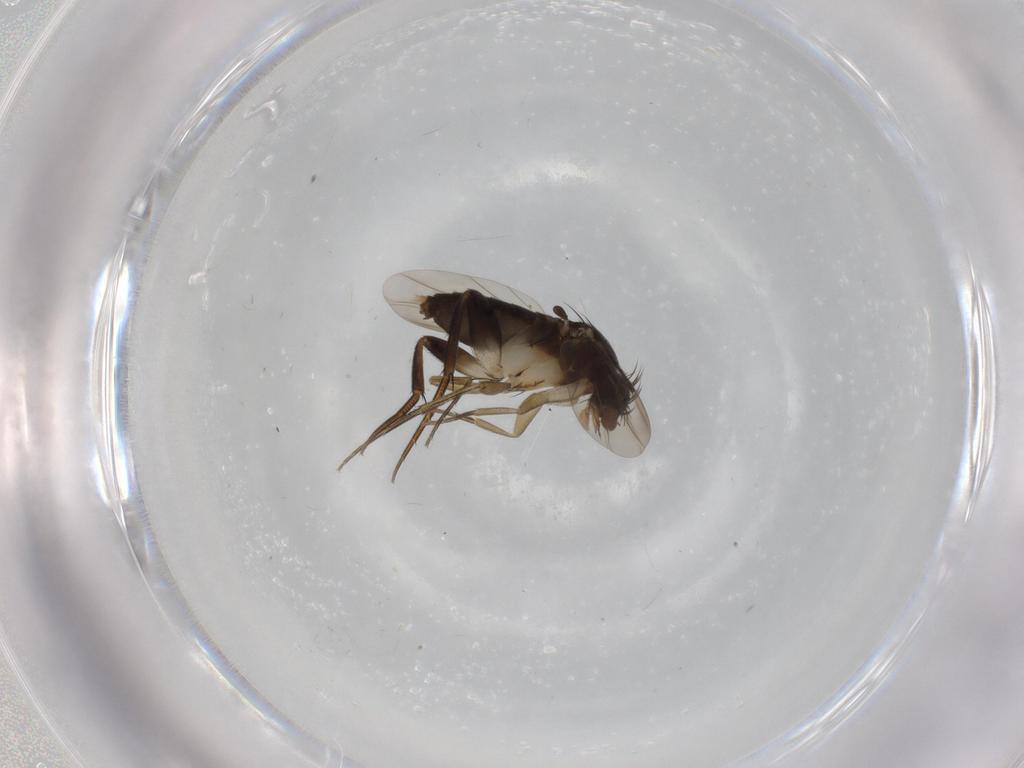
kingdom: Animalia
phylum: Arthropoda
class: Insecta
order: Diptera
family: Phoridae
